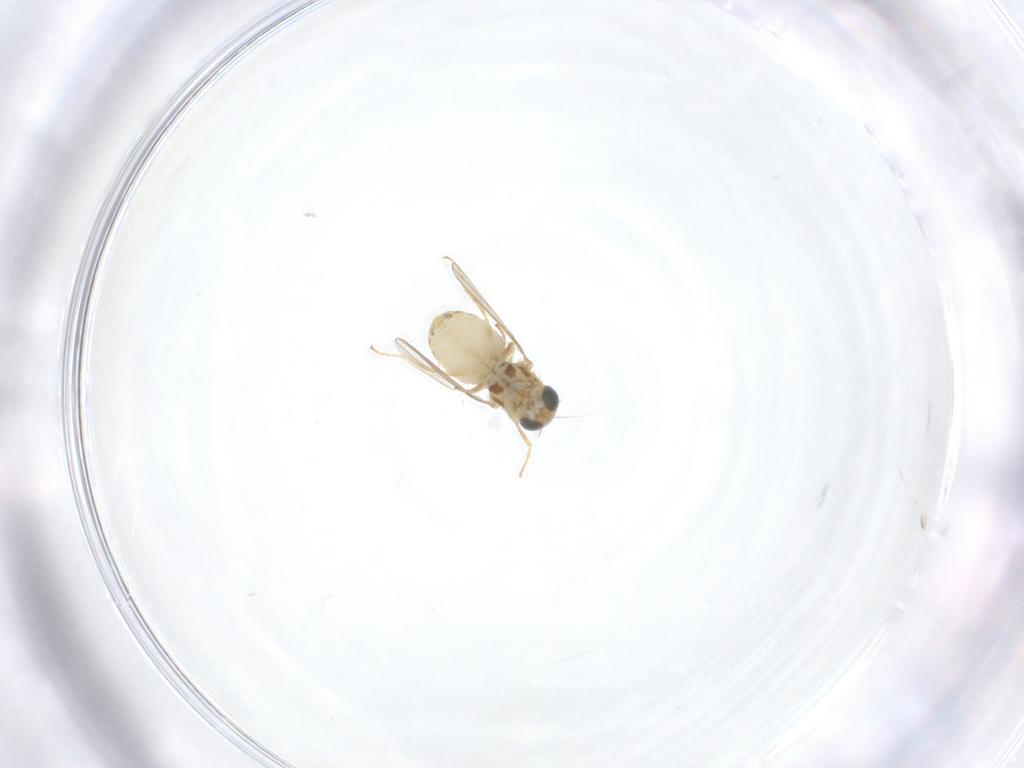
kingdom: Animalia
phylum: Arthropoda
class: Insecta
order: Diptera
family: Chyromyidae
